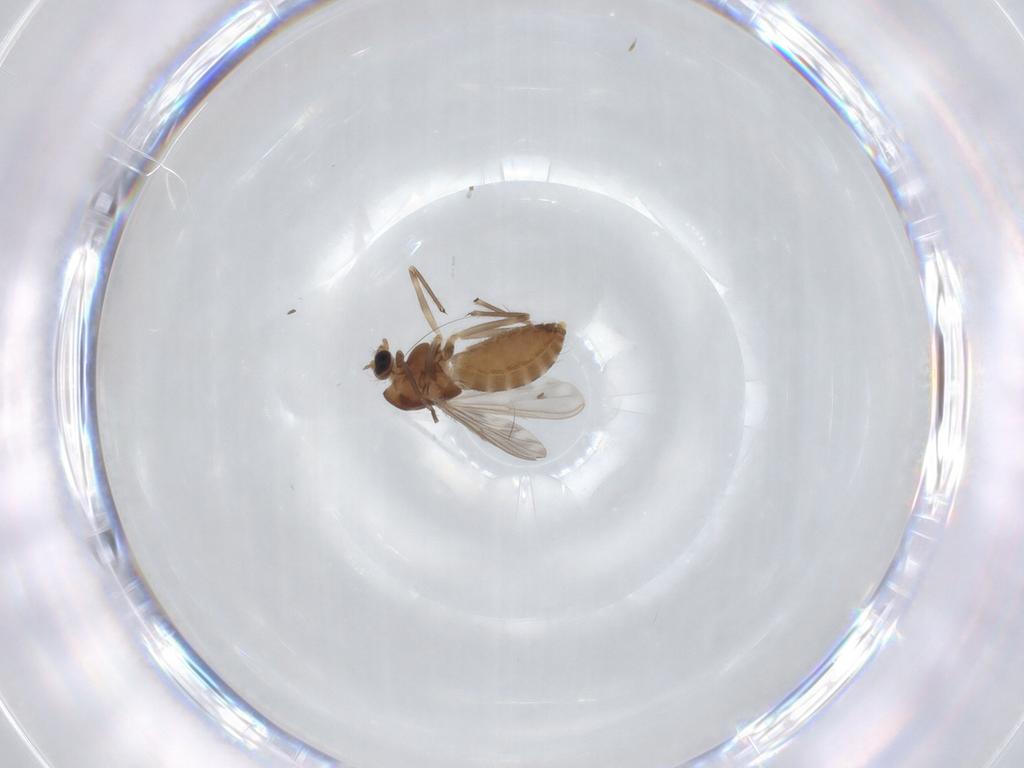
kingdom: Animalia
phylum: Arthropoda
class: Insecta
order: Diptera
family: Chironomidae
